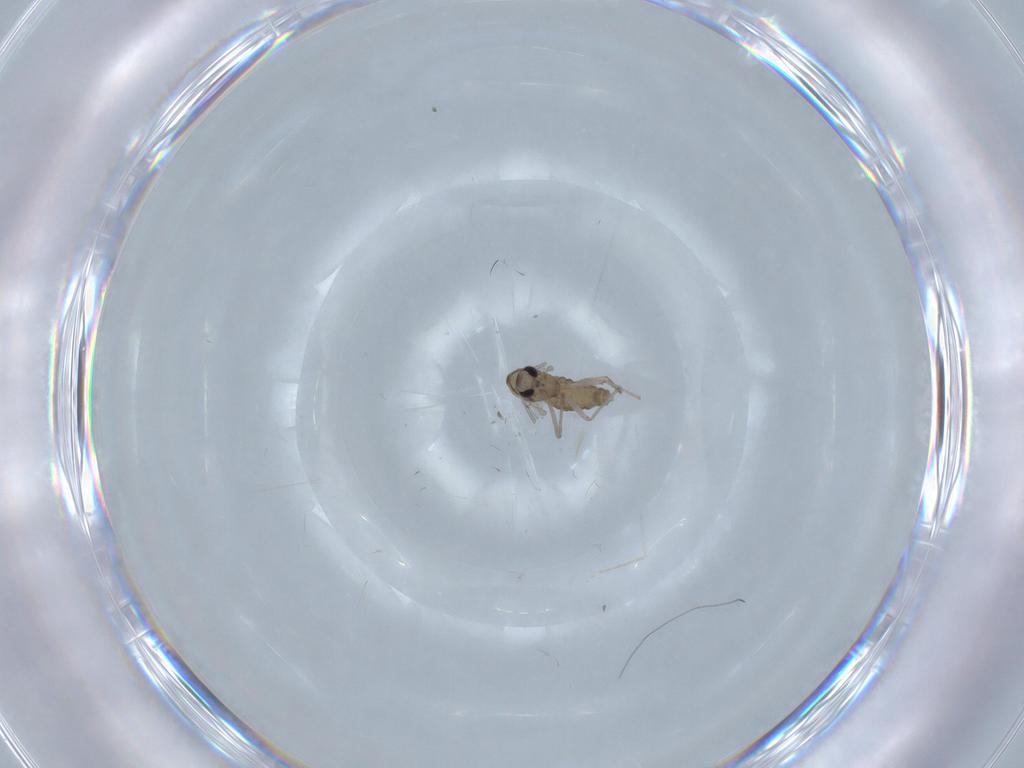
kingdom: Animalia
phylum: Arthropoda
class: Insecta
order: Diptera
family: Chironomidae
